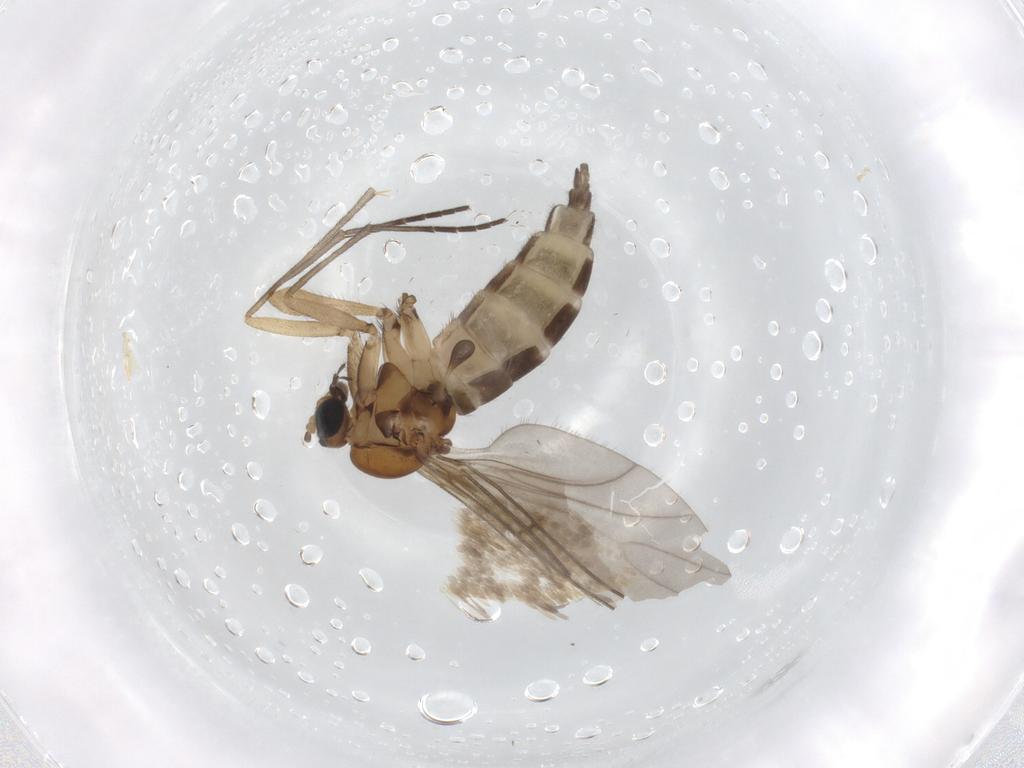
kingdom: Animalia
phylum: Arthropoda
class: Insecta
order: Diptera
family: Sciaridae
